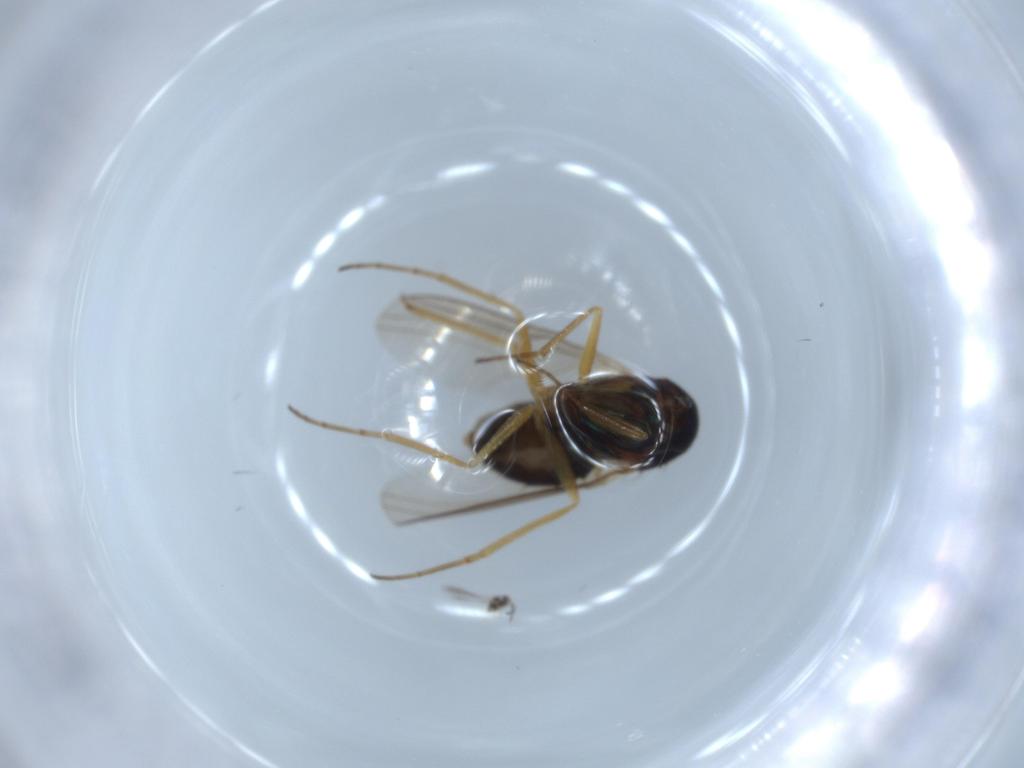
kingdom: Animalia
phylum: Arthropoda
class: Insecta
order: Diptera
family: Dolichopodidae
